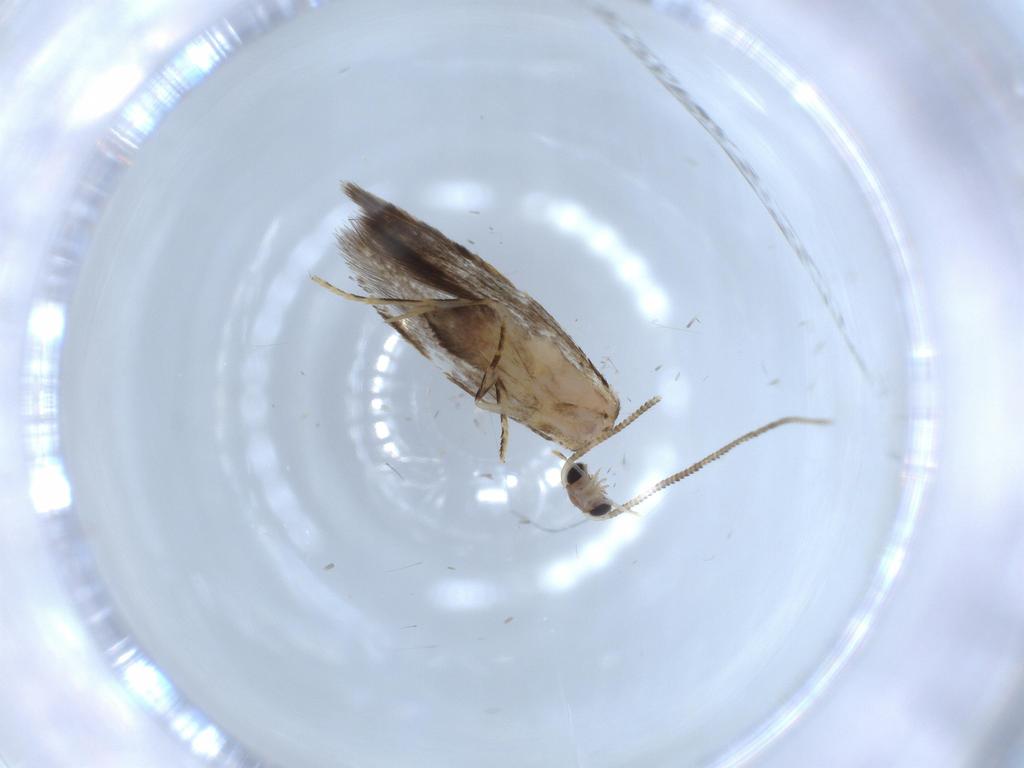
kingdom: Animalia
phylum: Arthropoda
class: Insecta
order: Lepidoptera
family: Tineidae
